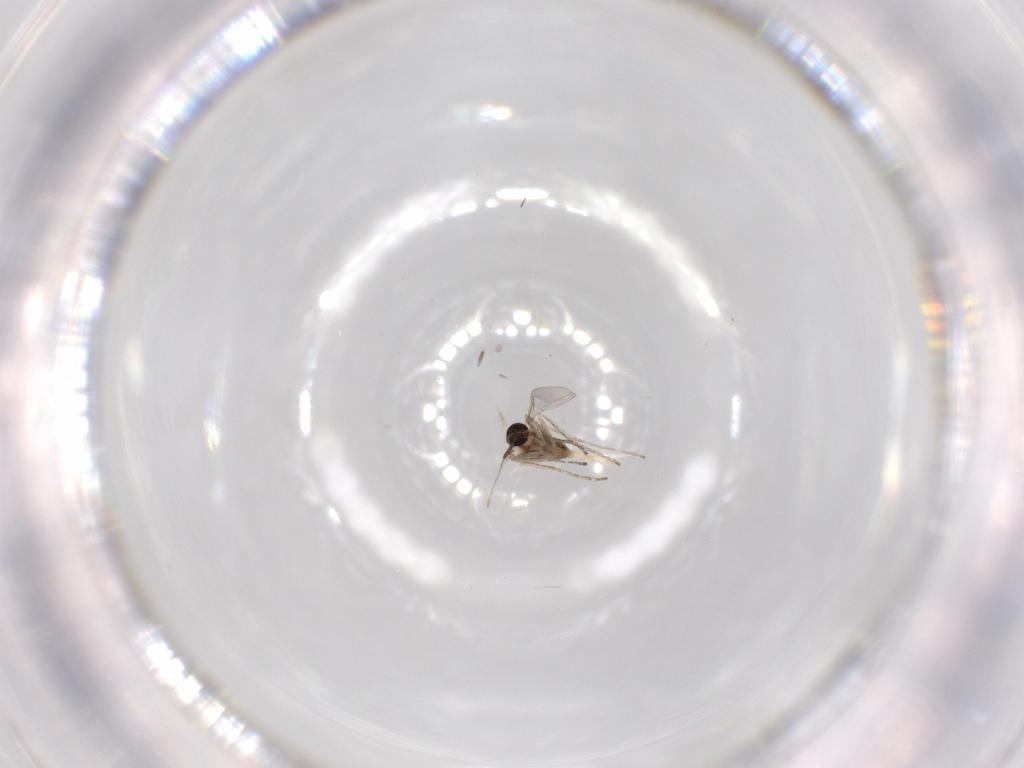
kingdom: Animalia
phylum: Arthropoda
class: Insecta
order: Diptera
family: Cecidomyiidae
